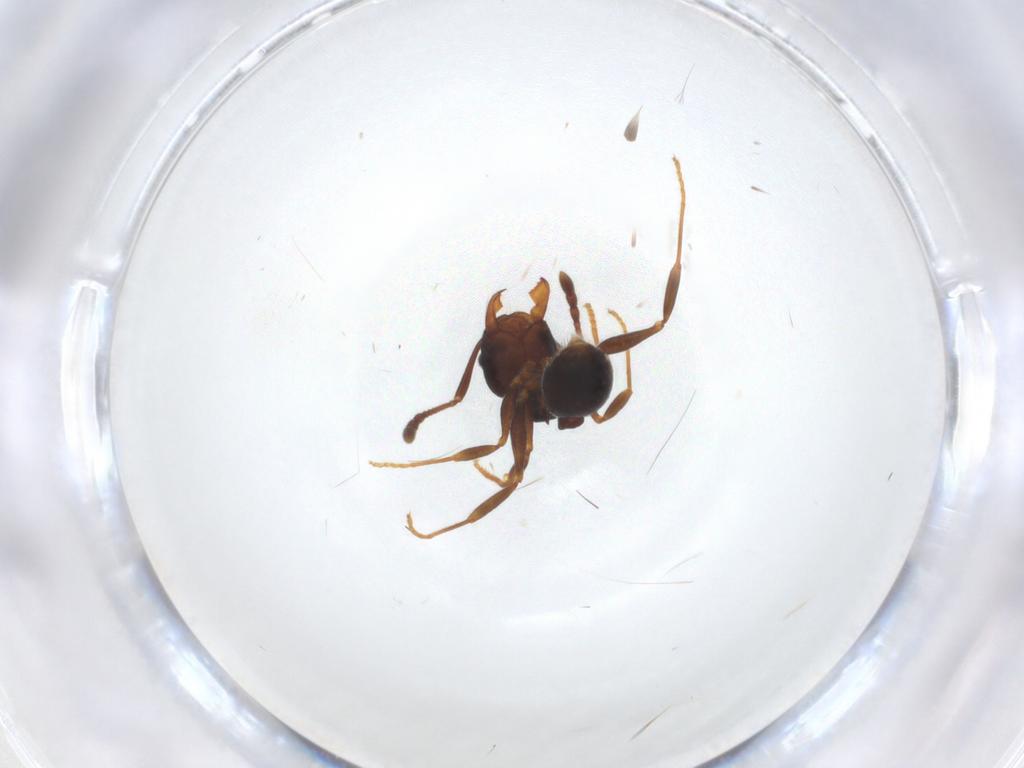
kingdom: Animalia
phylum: Arthropoda
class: Insecta
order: Hymenoptera
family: Formicidae
